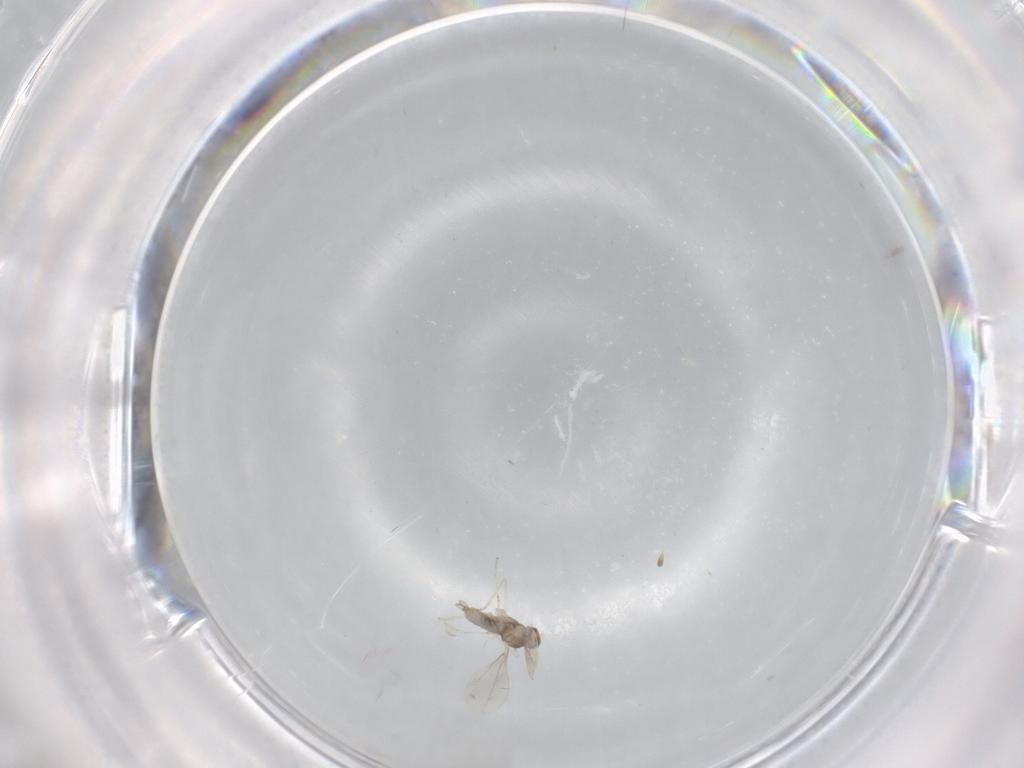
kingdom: Animalia
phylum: Arthropoda
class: Insecta
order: Diptera
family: Cecidomyiidae
